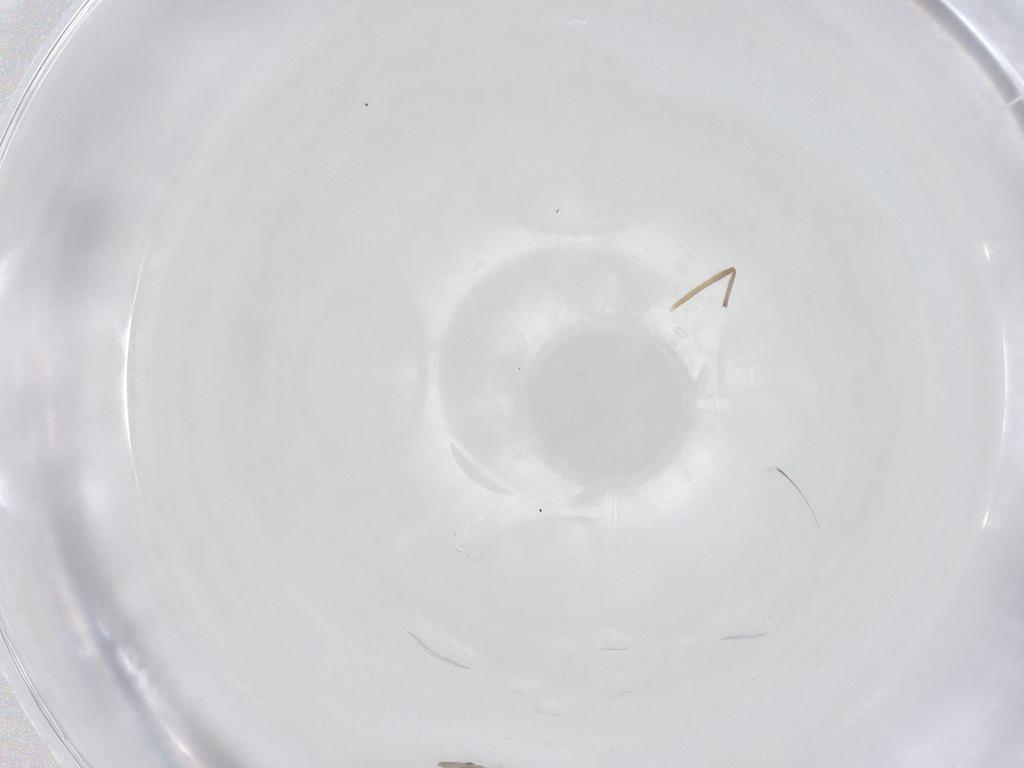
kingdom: Animalia
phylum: Arthropoda
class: Insecta
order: Diptera
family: Cecidomyiidae
